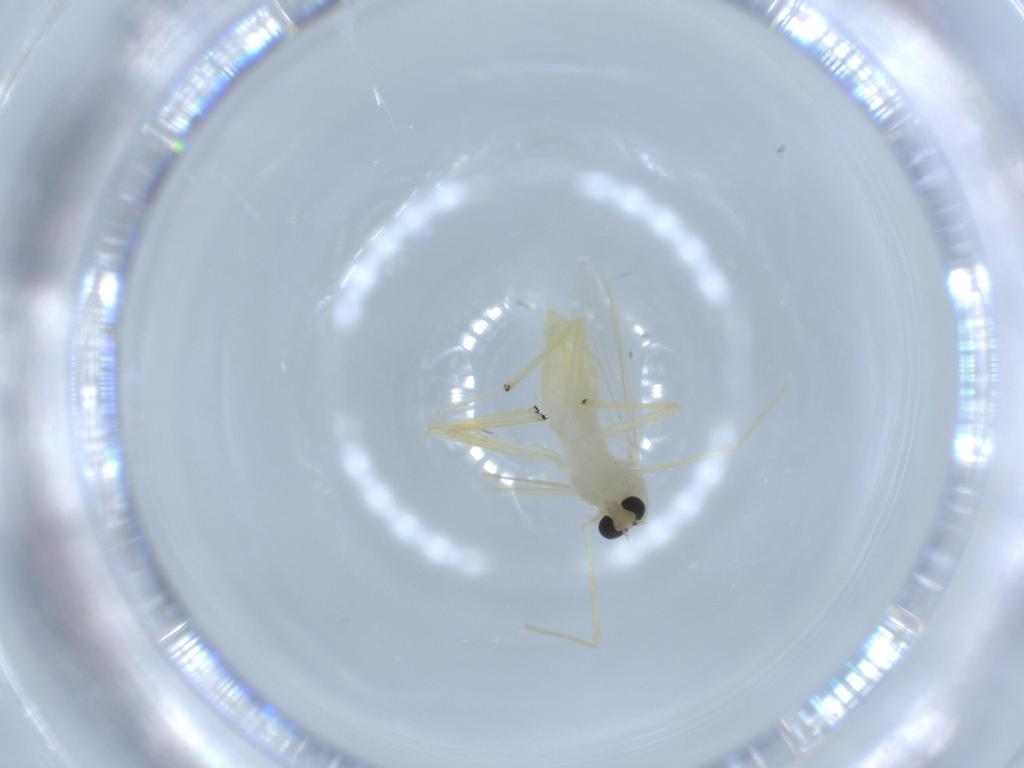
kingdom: Animalia
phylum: Arthropoda
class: Insecta
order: Diptera
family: Chironomidae
